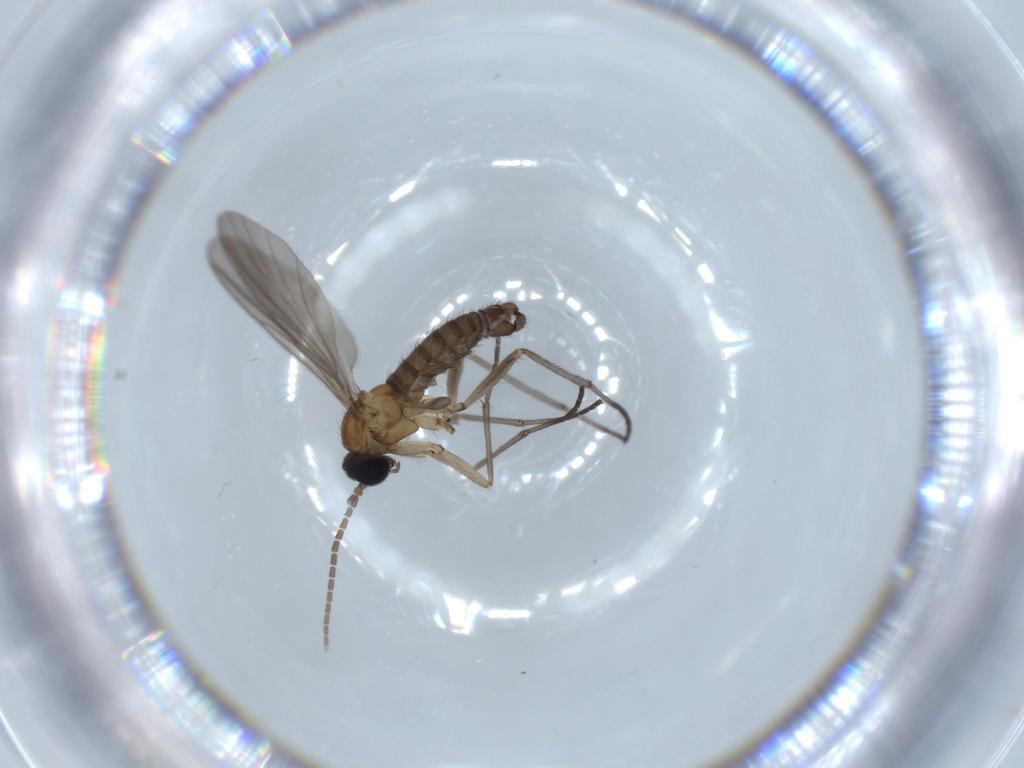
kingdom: Animalia
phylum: Arthropoda
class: Insecta
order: Diptera
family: Sciaridae
